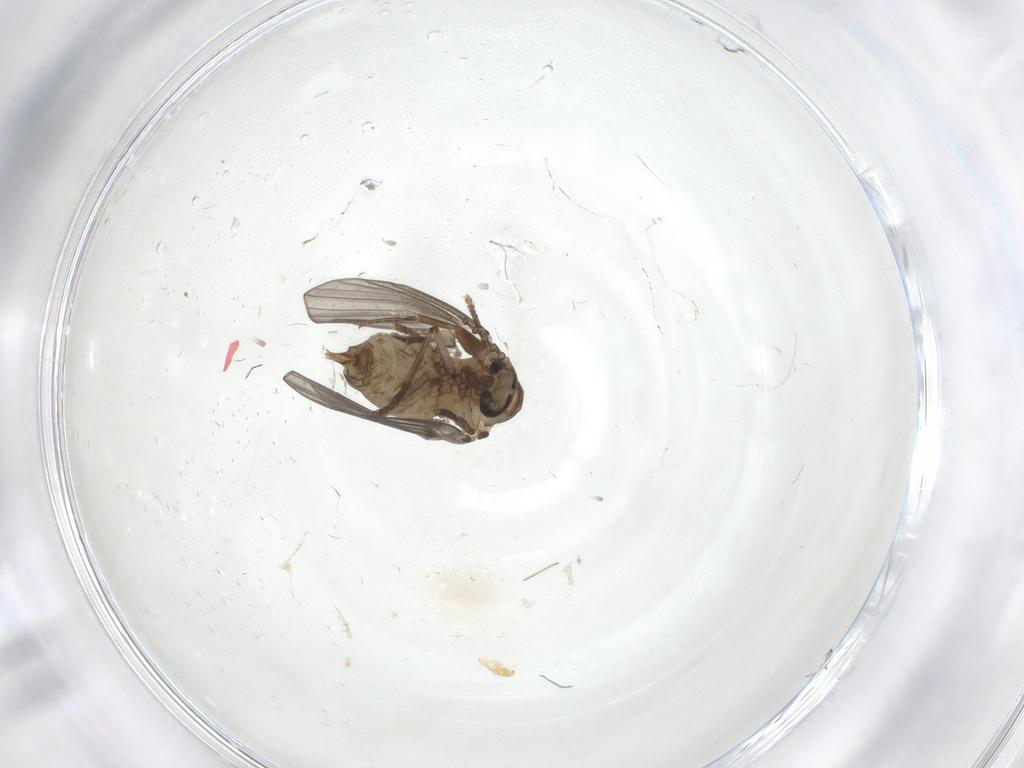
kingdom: Animalia
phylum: Arthropoda
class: Insecta
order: Diptera
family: Psychodidae
